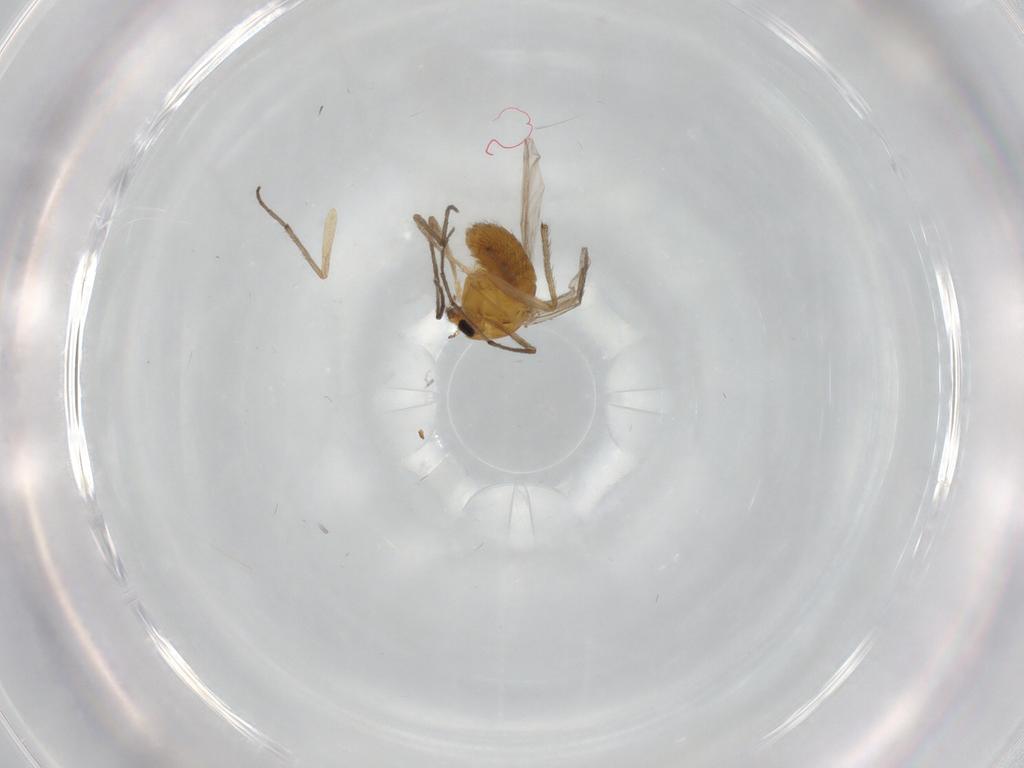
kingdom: Animalia
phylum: Arthropoda
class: Insecta
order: Diptera
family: Chironomidae
